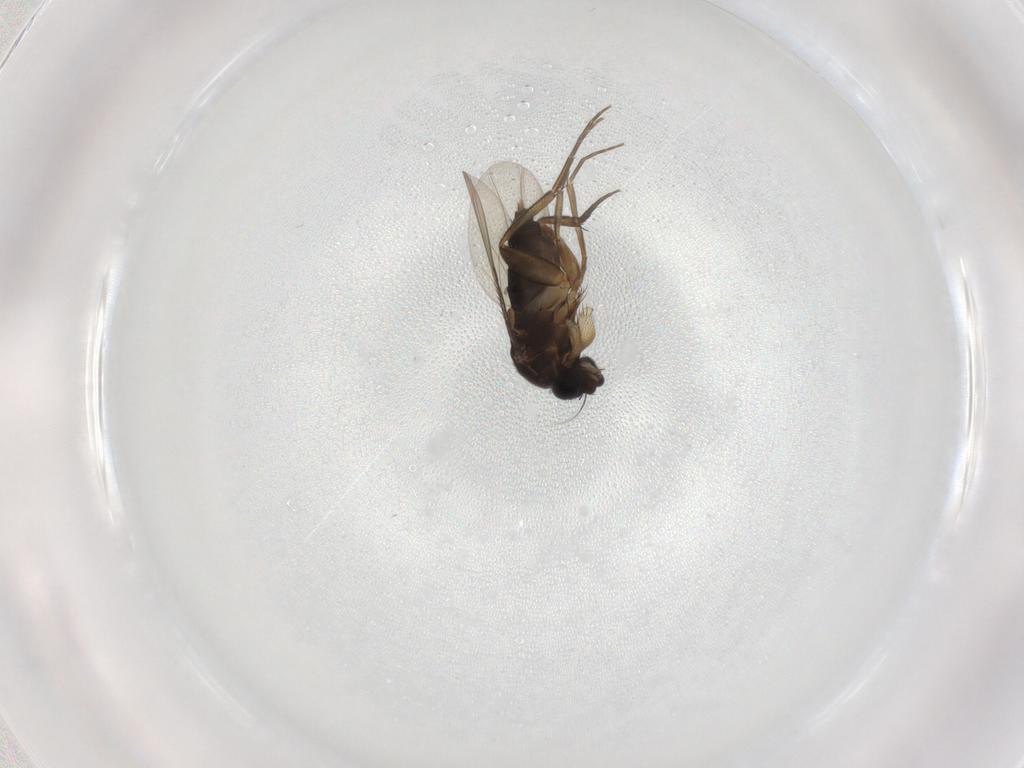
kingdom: Animalia
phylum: Arthropoda
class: Insecta
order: Diptera
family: Phoridae
